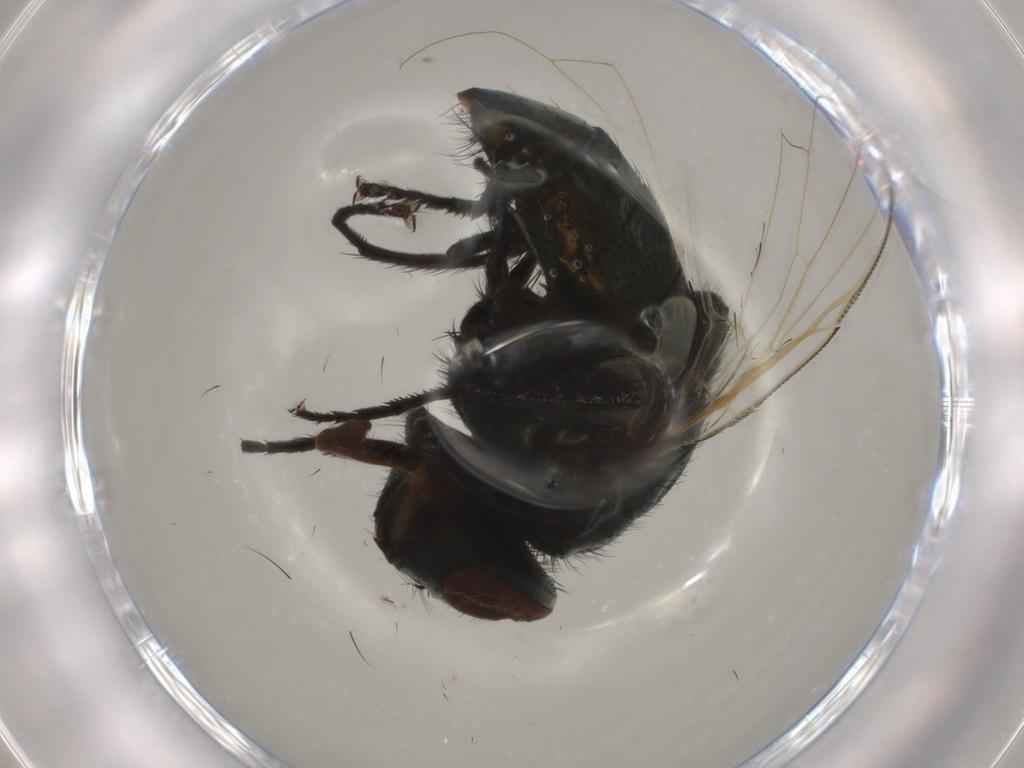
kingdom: Animalia
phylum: Arthropoda
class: Insecta
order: Diptera
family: Muscidae
